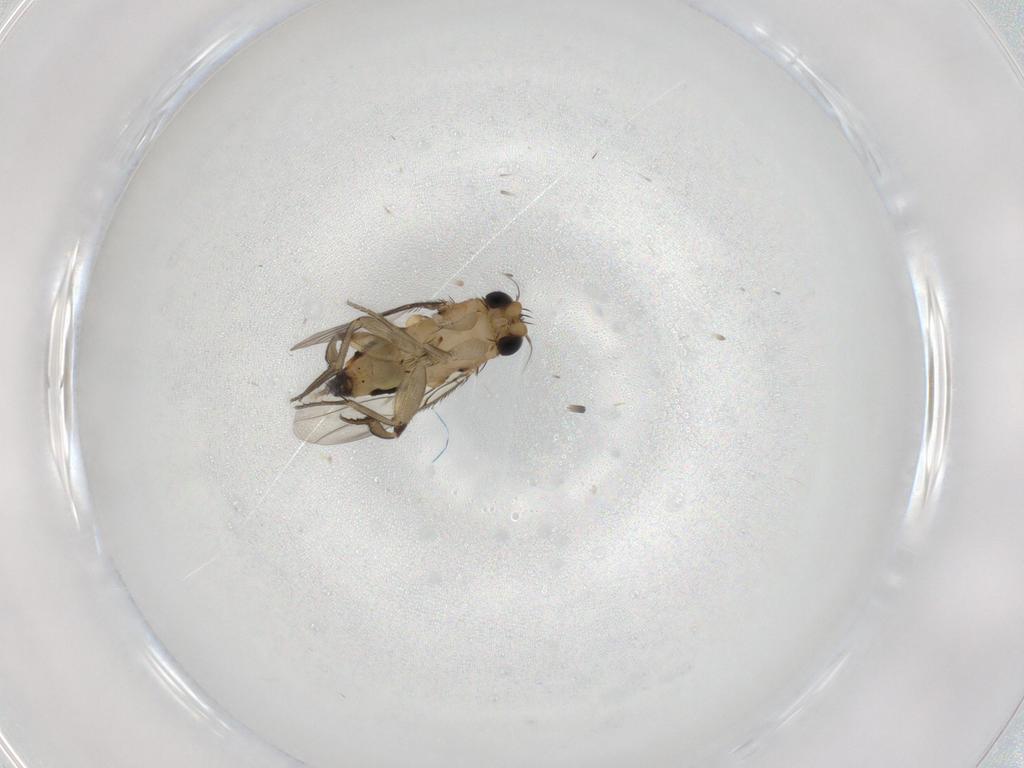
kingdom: Animalia
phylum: Arthropoda
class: Insecta
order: Diptera
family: Phoridae
